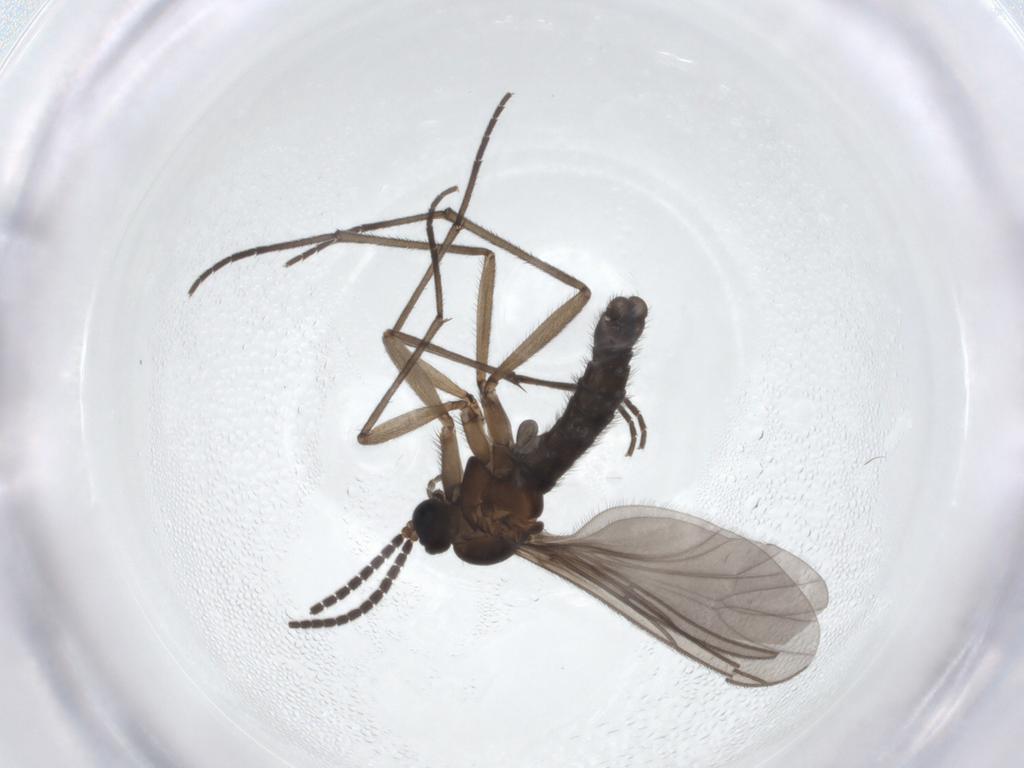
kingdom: Animalia
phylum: Arthropoda
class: Insecta
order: Diptera
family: Sciaridae
